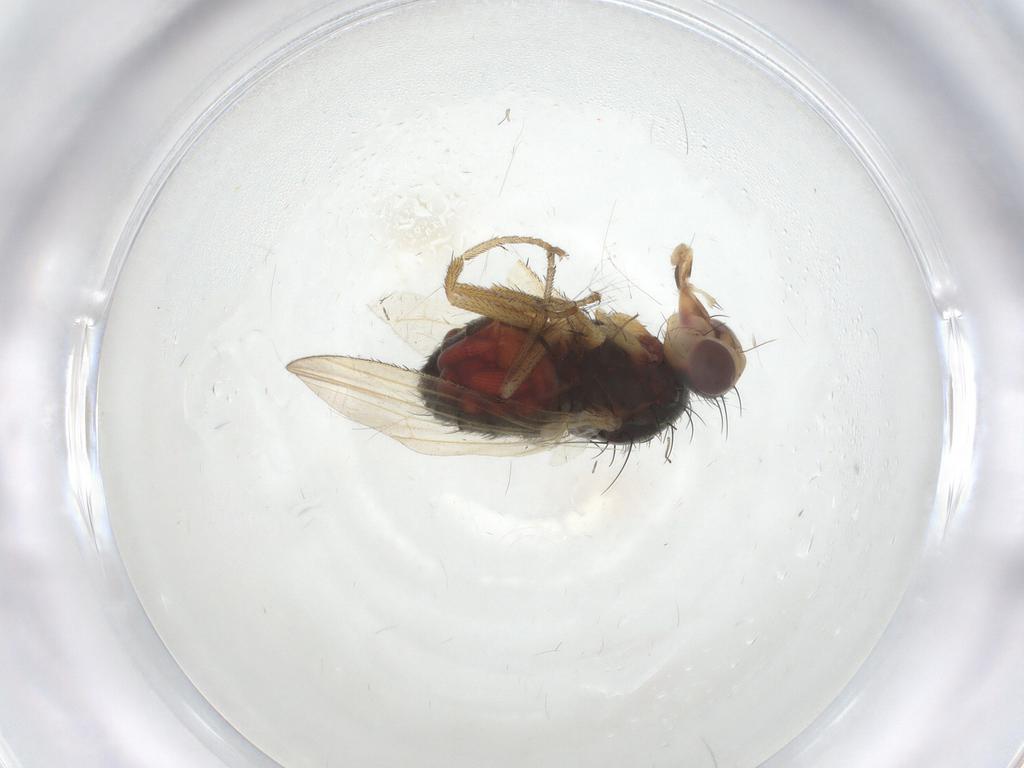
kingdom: Animalia
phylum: Arthropoda
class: Insecta
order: Diptera
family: Heleomyzidae
